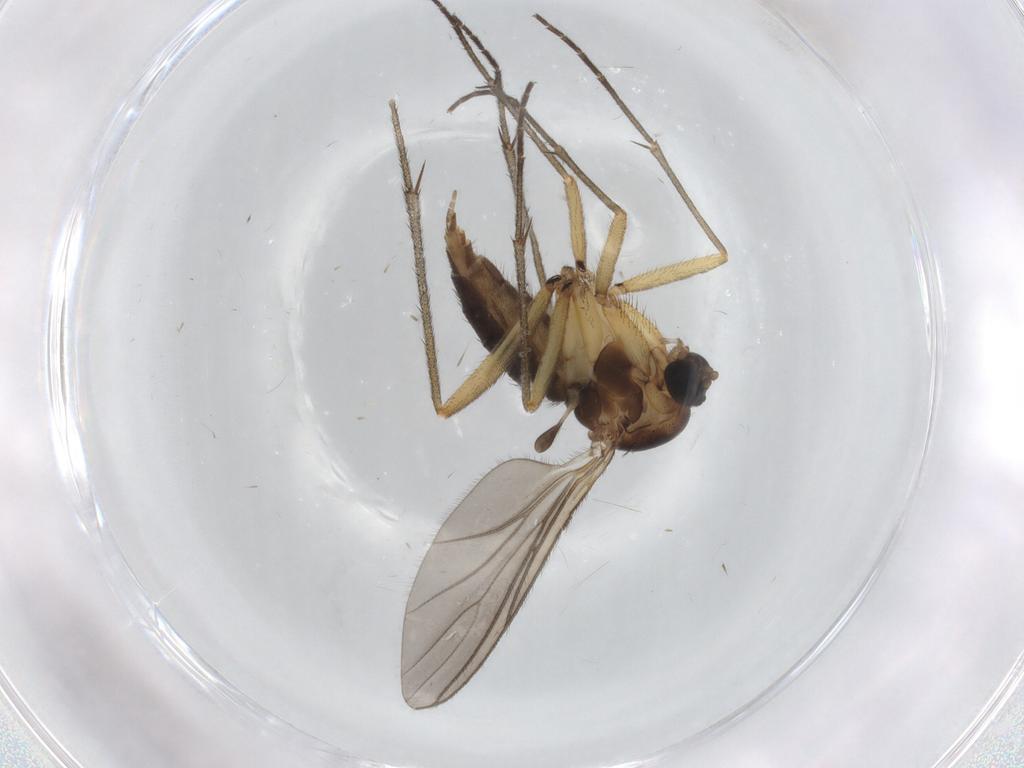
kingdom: Animalia
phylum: Arthropoda
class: Insecta
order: Diptera
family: Sciaridae
